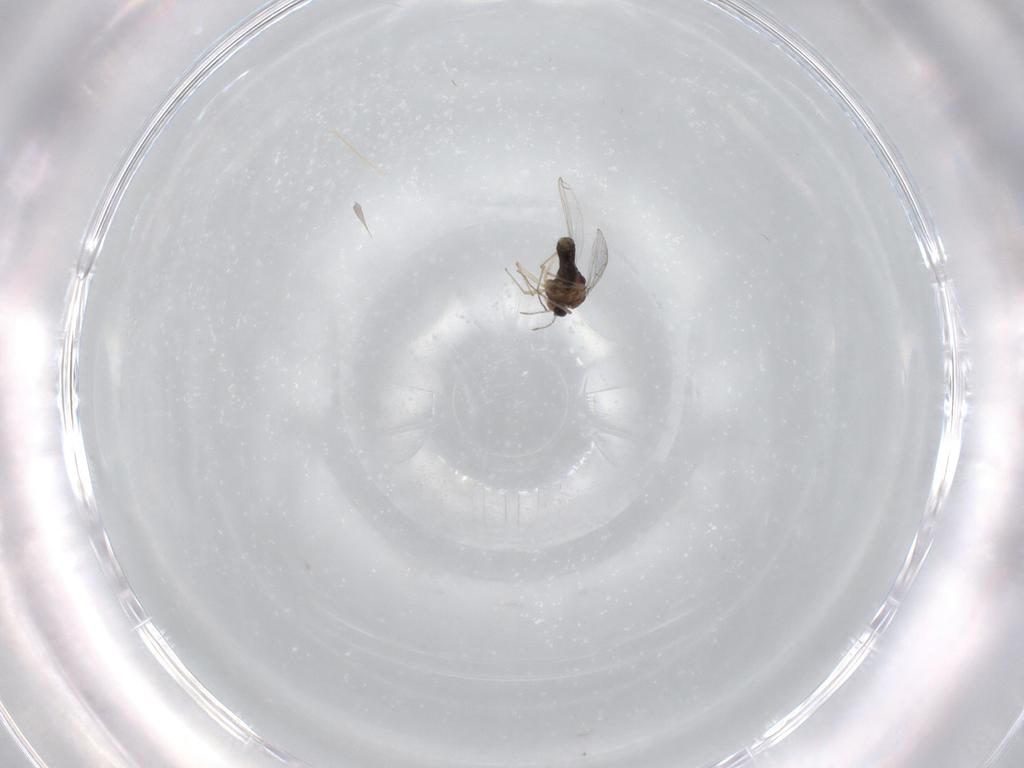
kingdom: Animalia
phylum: Arthropoda
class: Insecta
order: Diptera
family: Chironomidae
